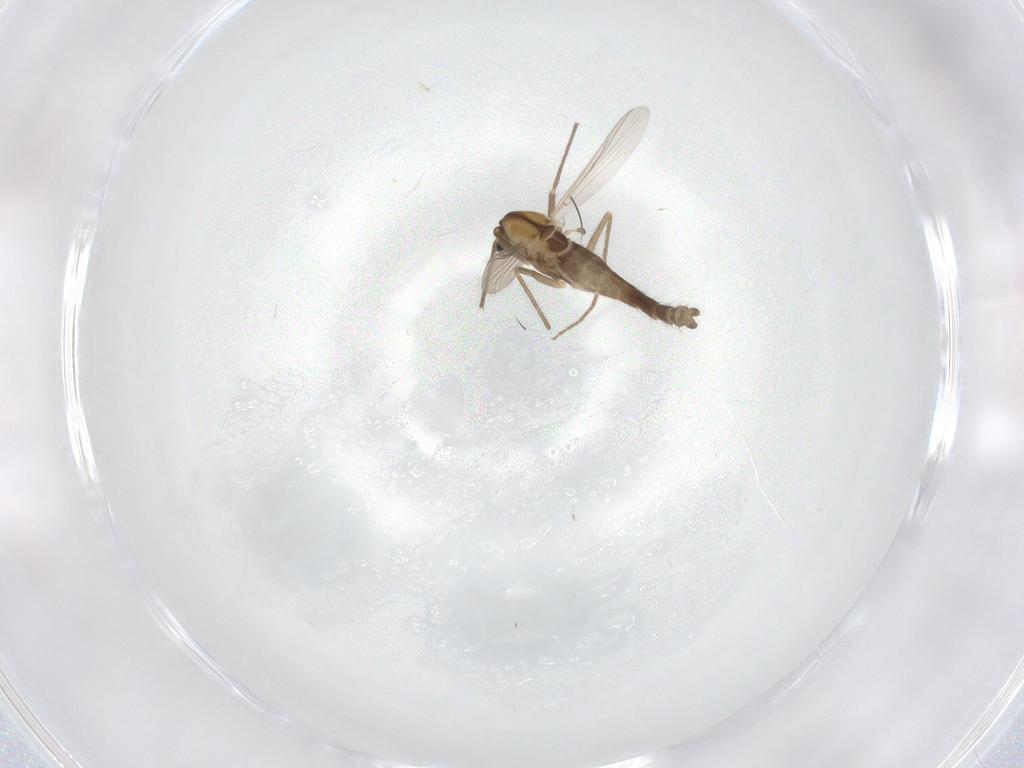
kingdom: Animalia
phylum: Arthropoda
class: Insecta
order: Diptera
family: Chironomidae
